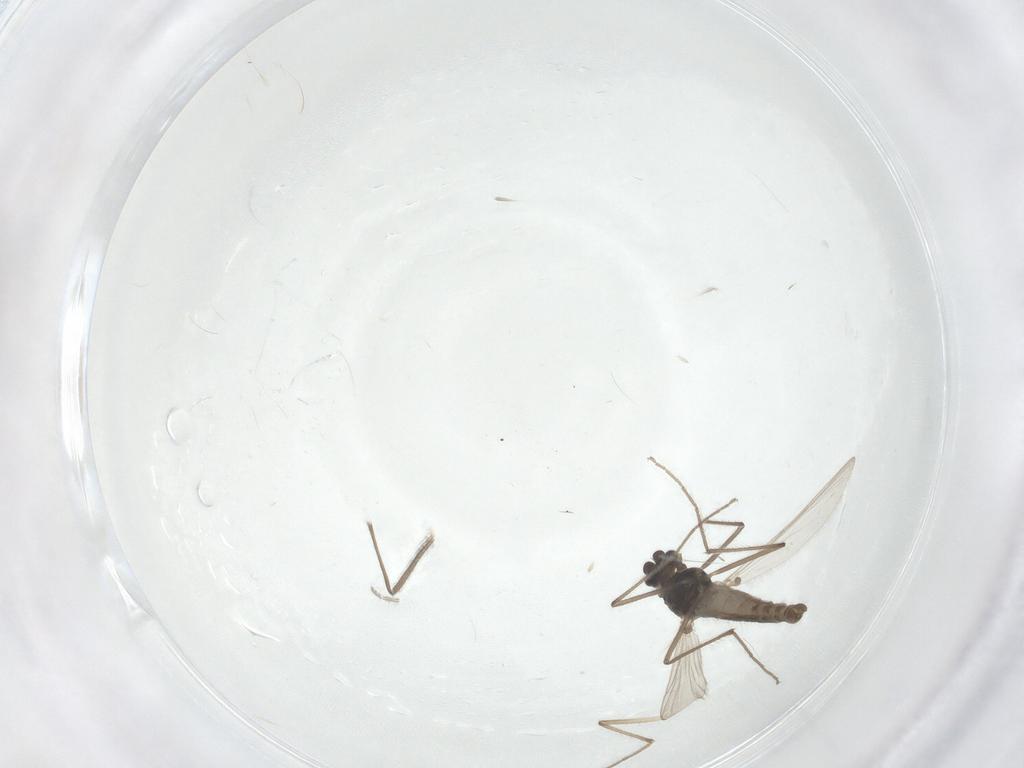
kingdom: Animalia
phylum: Arthropoda
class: Insecta
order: Diptera
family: Chironomidae
